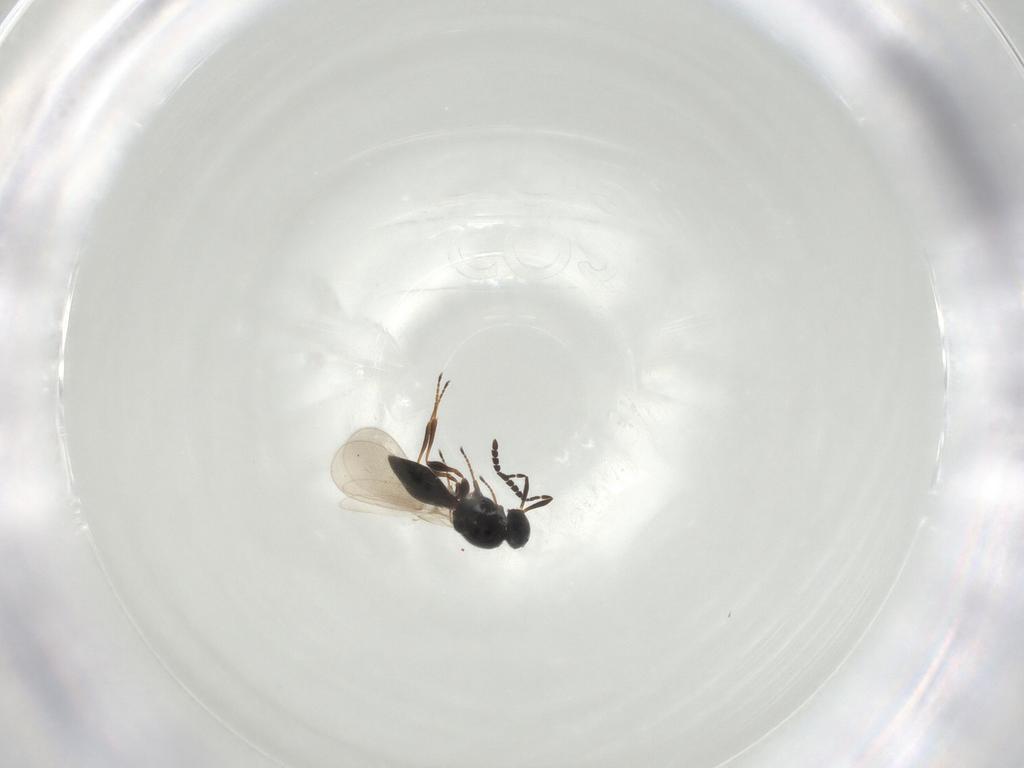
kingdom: Animalia
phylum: Arthropoda
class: Insecta
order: Hymenoptera
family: Platygastridae
